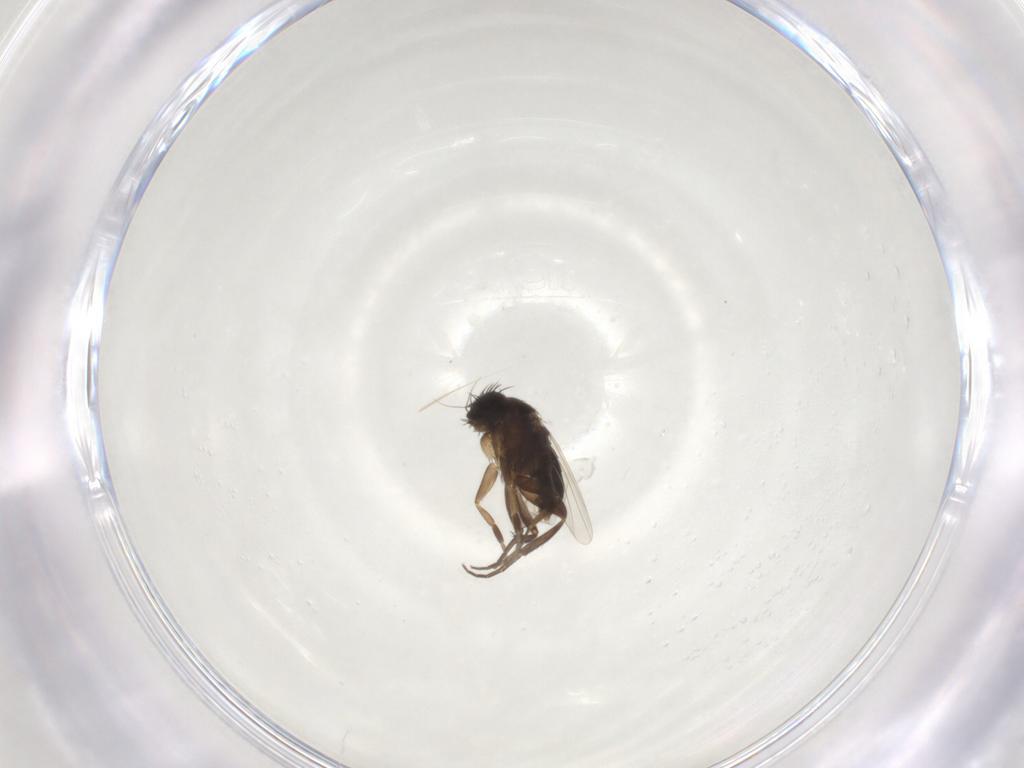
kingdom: Animalia
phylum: Arthropoda
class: Insecta
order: Diptera
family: Phoridae
